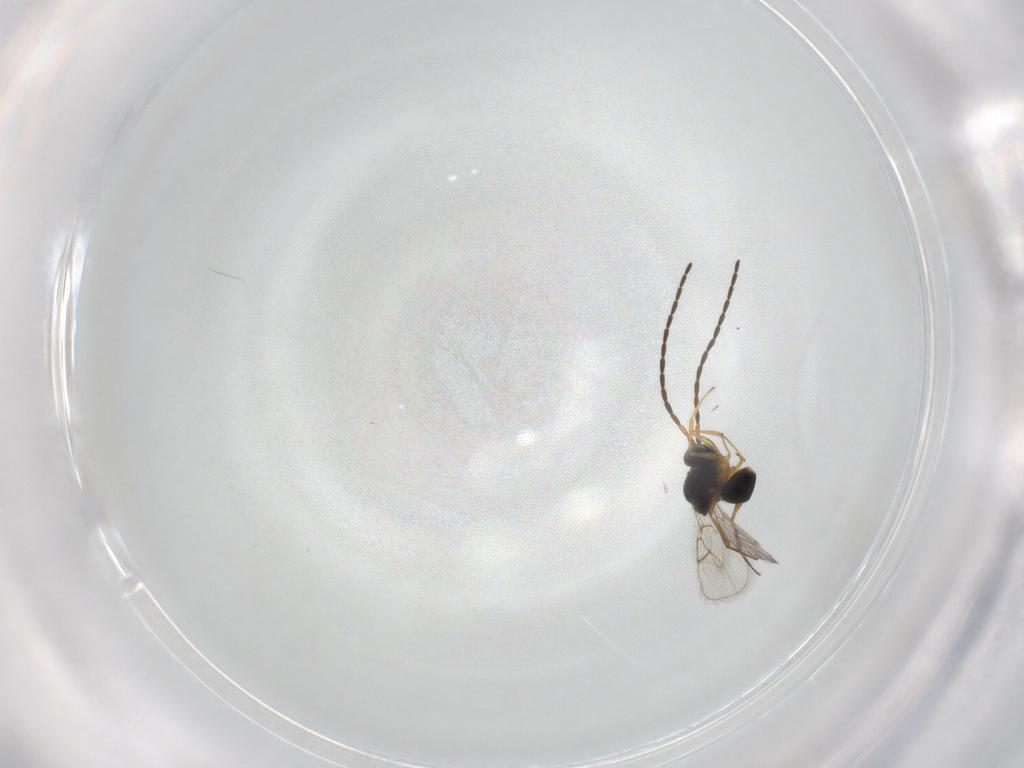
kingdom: Animalia
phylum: Arthropoda
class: Insecta
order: Hymenoptera
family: Figitidae
